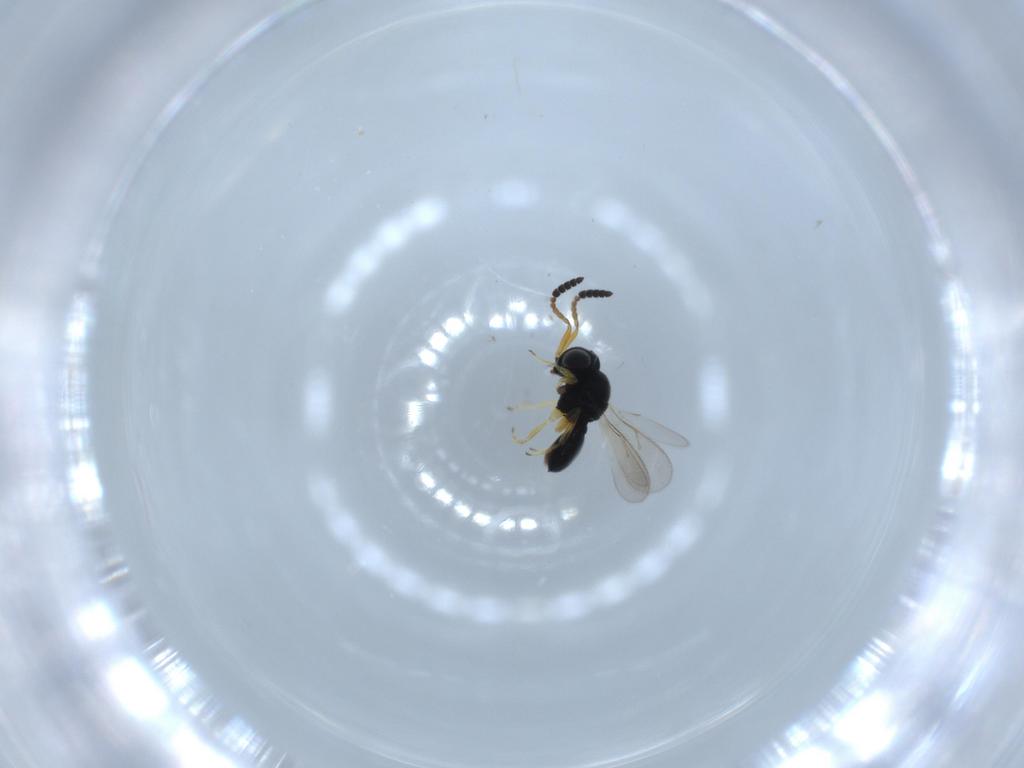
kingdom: Animalia
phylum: Arthropoda
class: Insecta
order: Hymenoptera
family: Scelionidae
